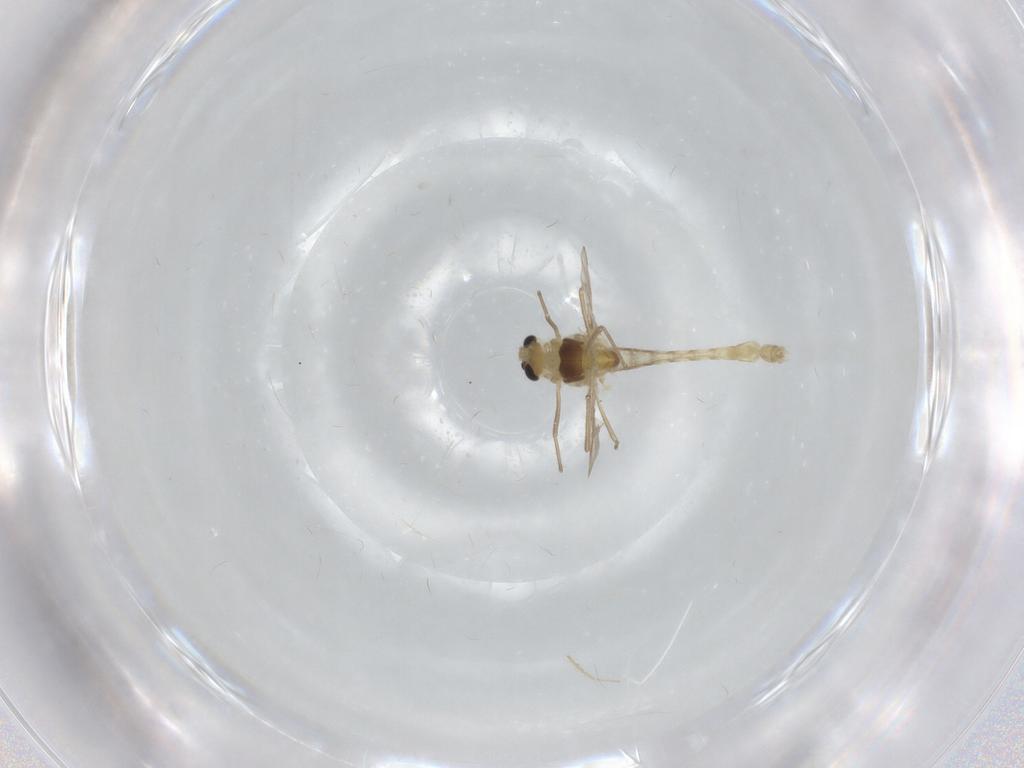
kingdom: Animalia
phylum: Arthropoda
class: Insecta
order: Diptera
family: Chironomidae
